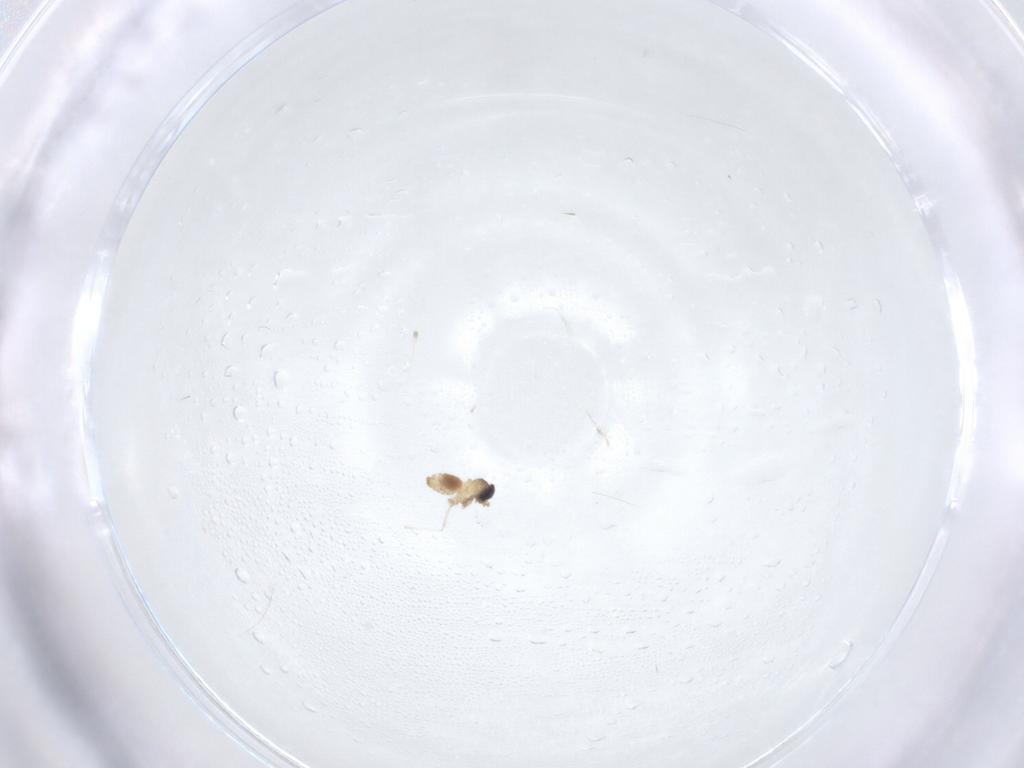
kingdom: Animalia
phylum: Arthropoda
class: Insecta
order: Diptera
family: Cecidomyiidae
